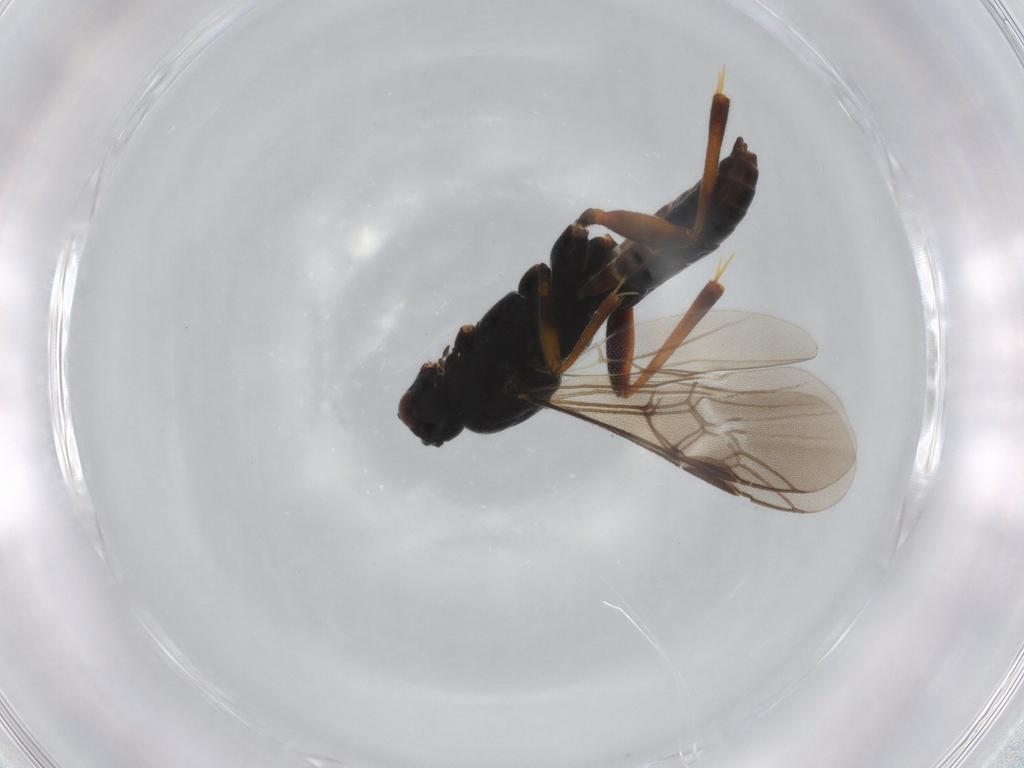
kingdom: Animalia
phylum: Arthropoda
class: Insecta
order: Hymenoptera
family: Braconidae
